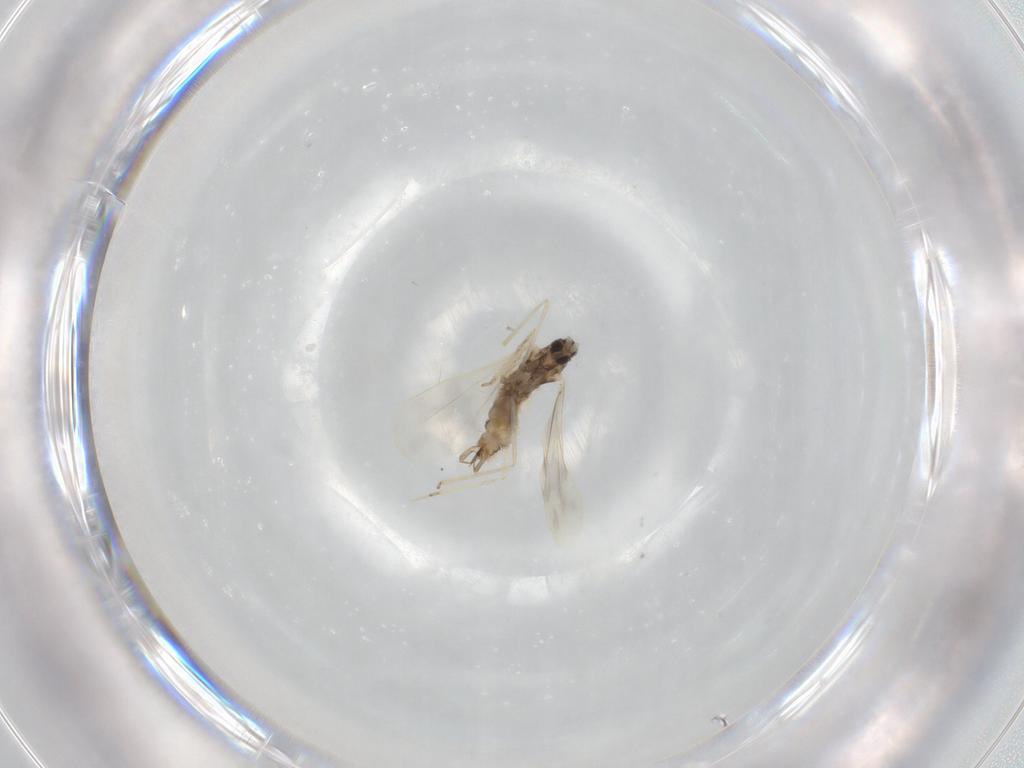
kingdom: Animalia
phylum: Arthropoda
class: Insecta
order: Diptera
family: Cecidomyiidae
